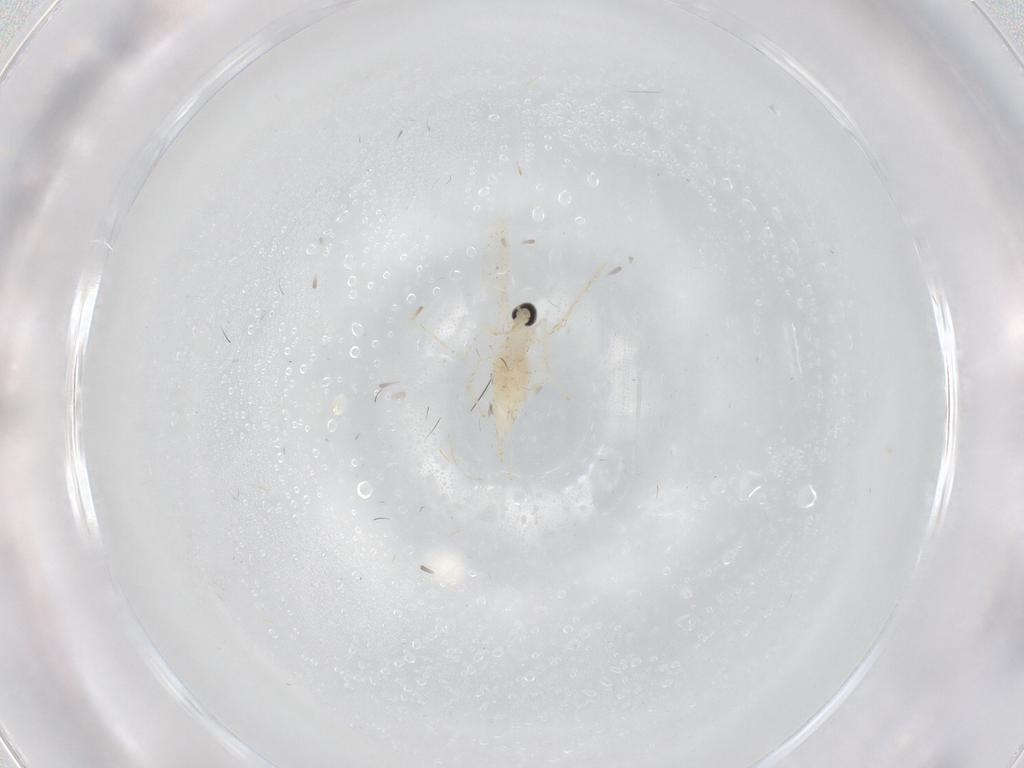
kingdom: Animalia
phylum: Arthropoda
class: Insecta
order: Diptera
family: Cecidomyiidae
